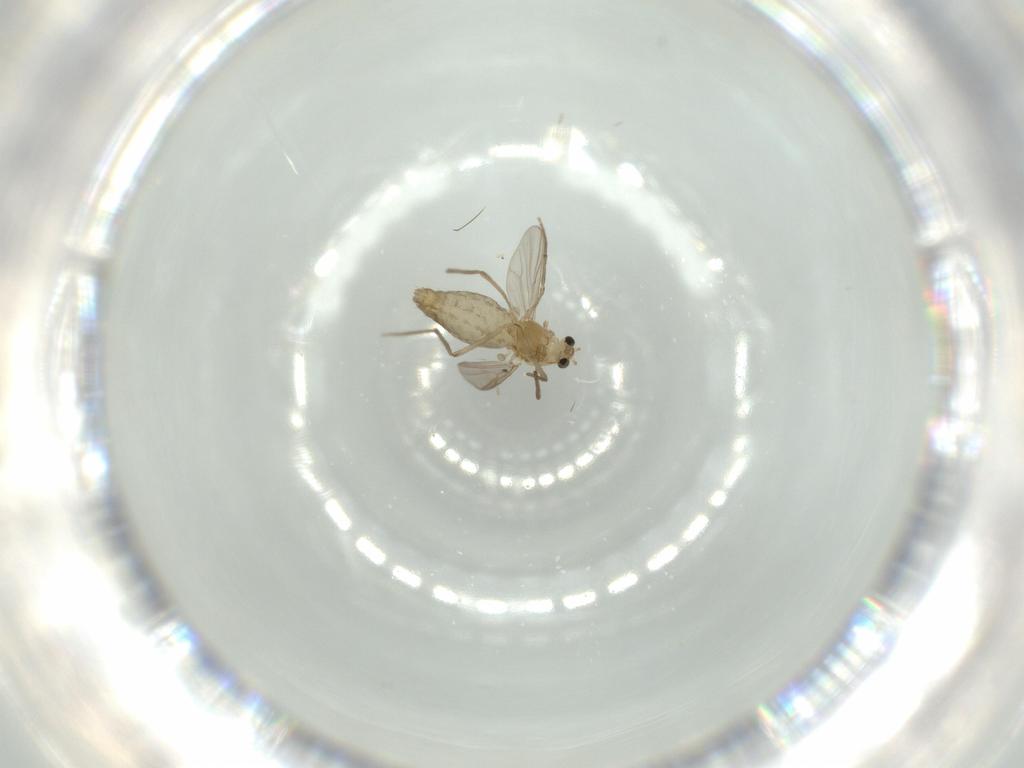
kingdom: Animalia
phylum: Arthropoda
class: Insecta
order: Diptera
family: Chironomidae
